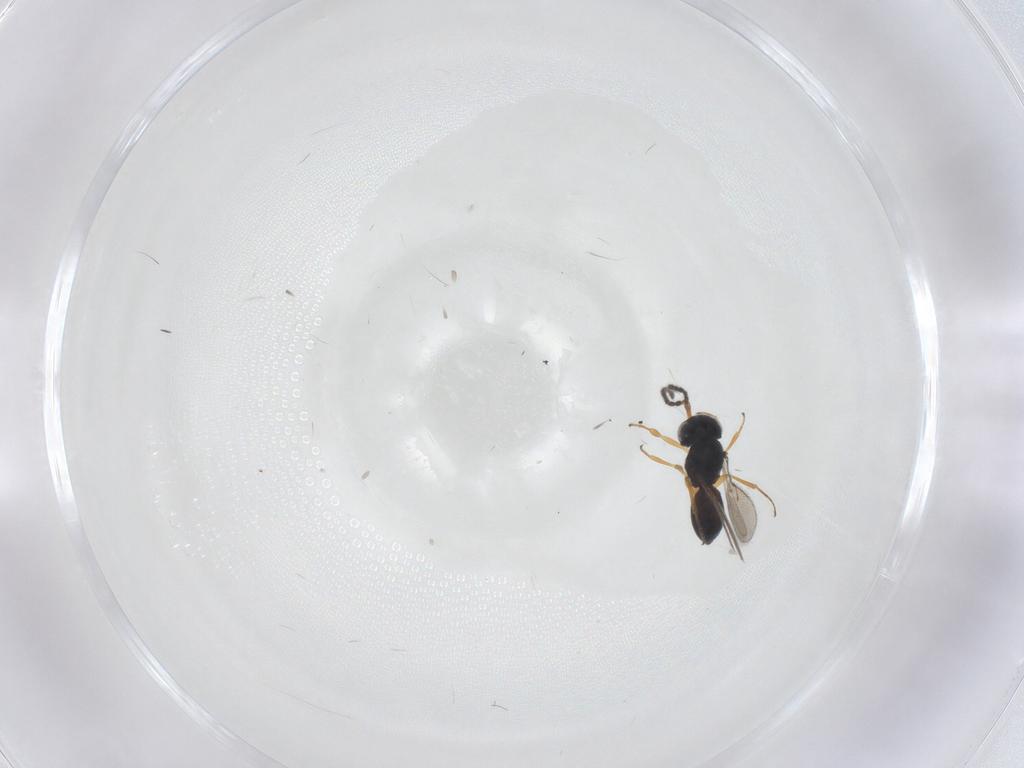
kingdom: Animalia
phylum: Arthropoda
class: Insecta
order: Hymenoptera
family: Scelionidae
